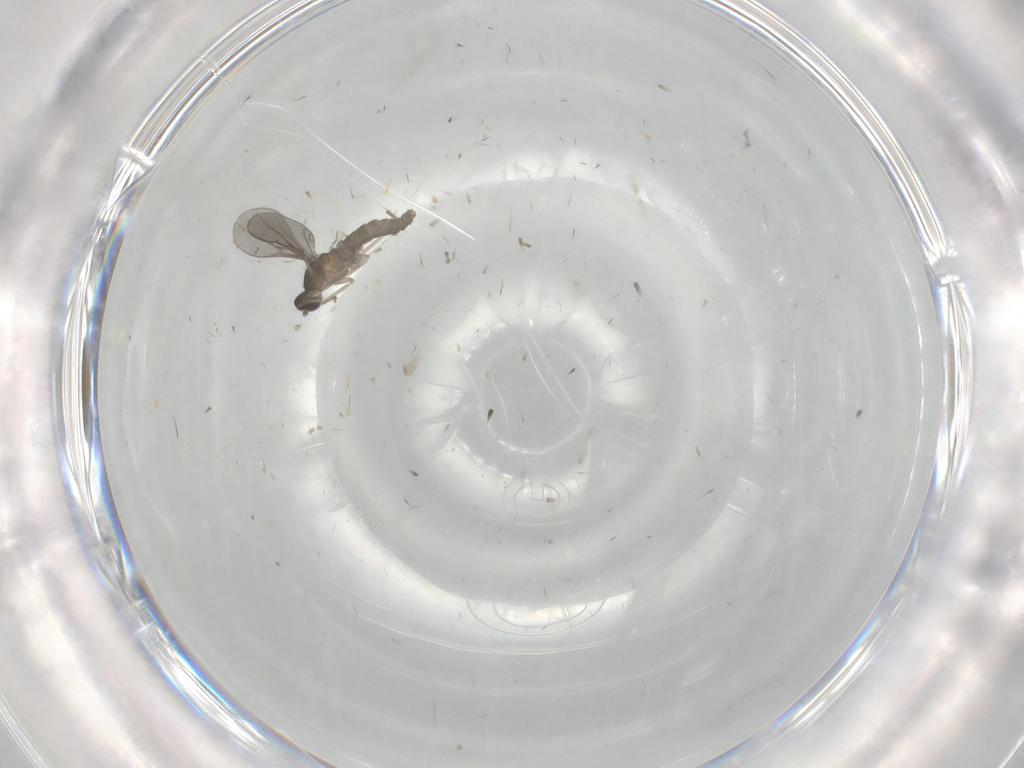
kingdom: Animalia
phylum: Arthropoda
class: Insecta
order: Diptera
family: Cecidomyiidae
